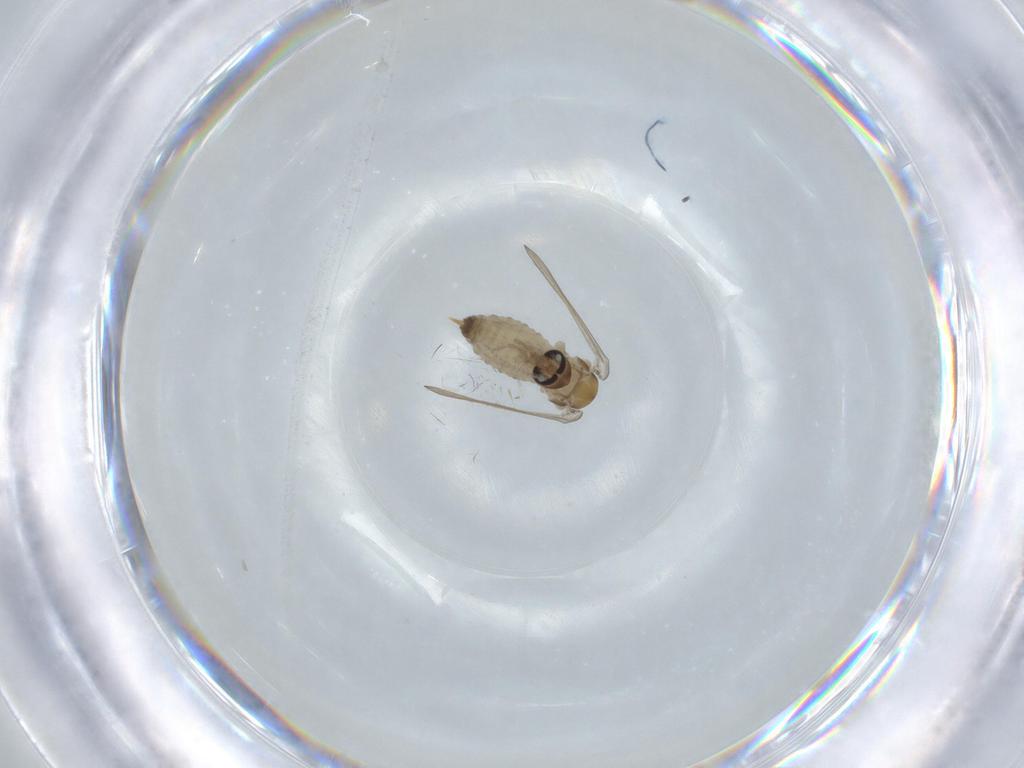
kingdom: Animalia
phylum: Arthropoda
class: Insecta
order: Diptera
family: Psychodidae
